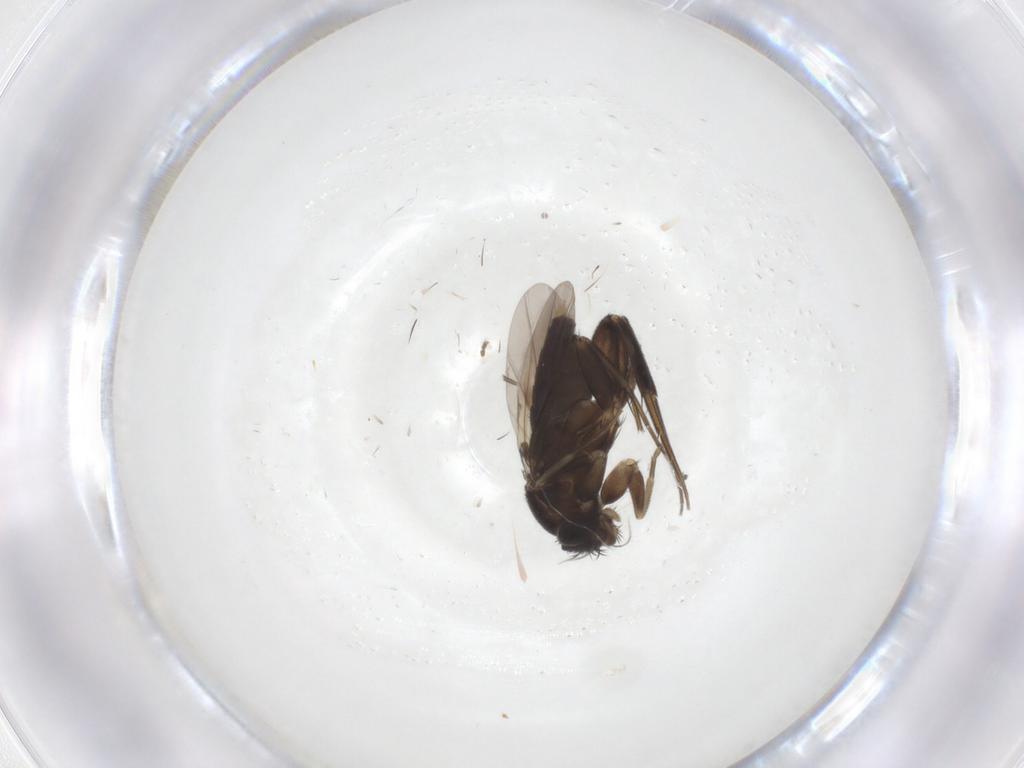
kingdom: Animalia
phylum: Arthropoda
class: Insecta
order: Diptera
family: Phoridae
